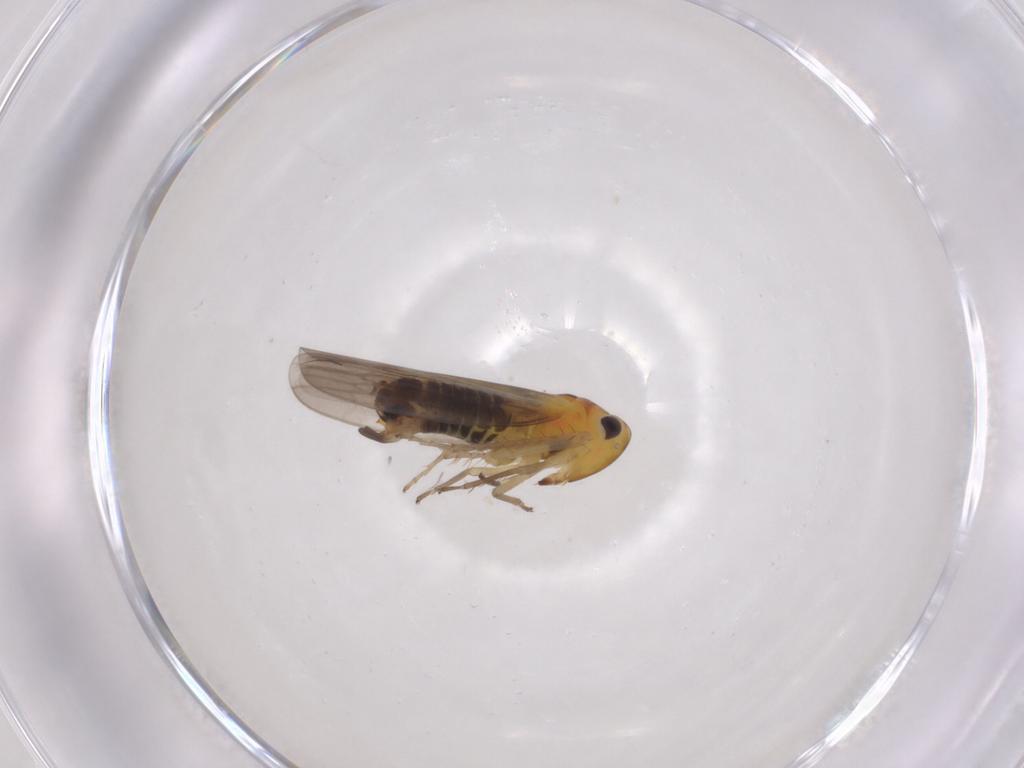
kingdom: Animalia
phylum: Arthropoda
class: Insecta
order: Hemiptera
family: Cicadellidae
